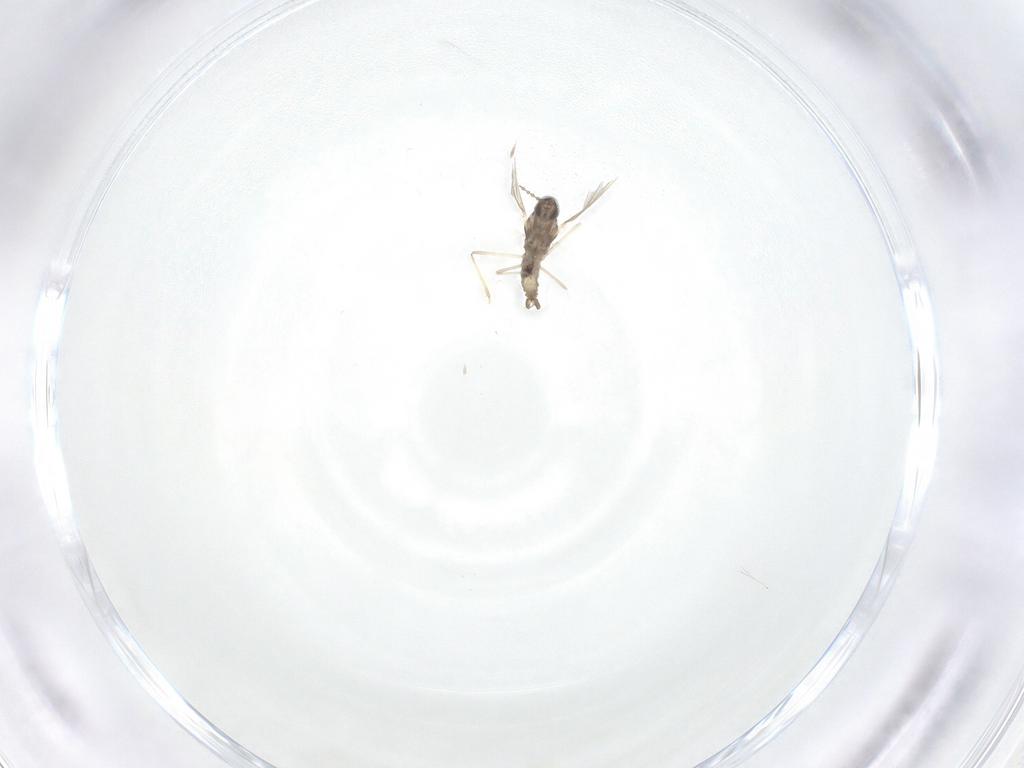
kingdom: Animalia
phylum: Arthropoda
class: Insecta
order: Diptera
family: Cecidomyiidae
